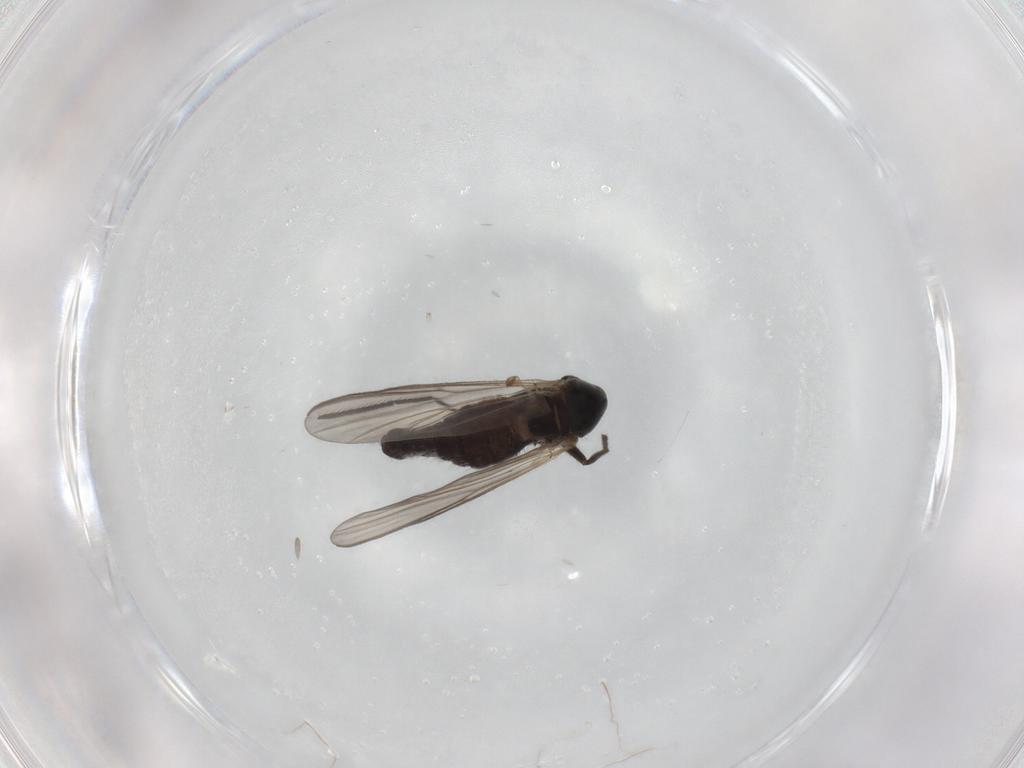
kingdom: Animalia
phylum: Arthropoda
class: Insecta
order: Diptera
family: Chironomidae
